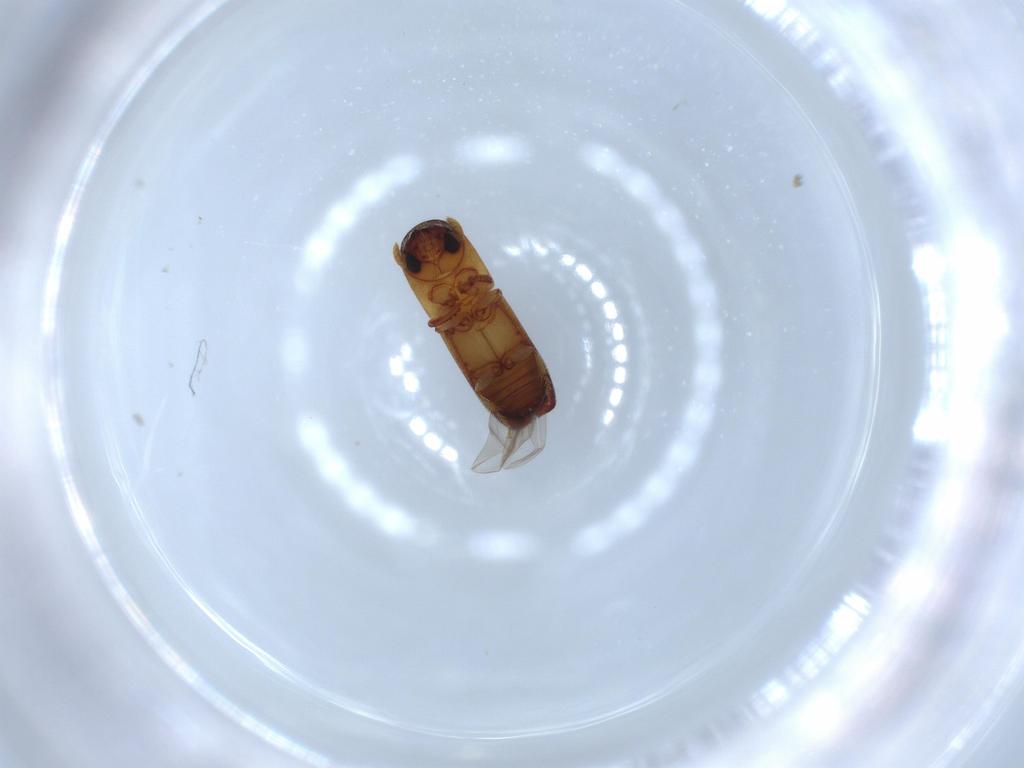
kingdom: Animalia
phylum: Arthropoda
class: Insecta
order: Coleoptera
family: Curculionidae
